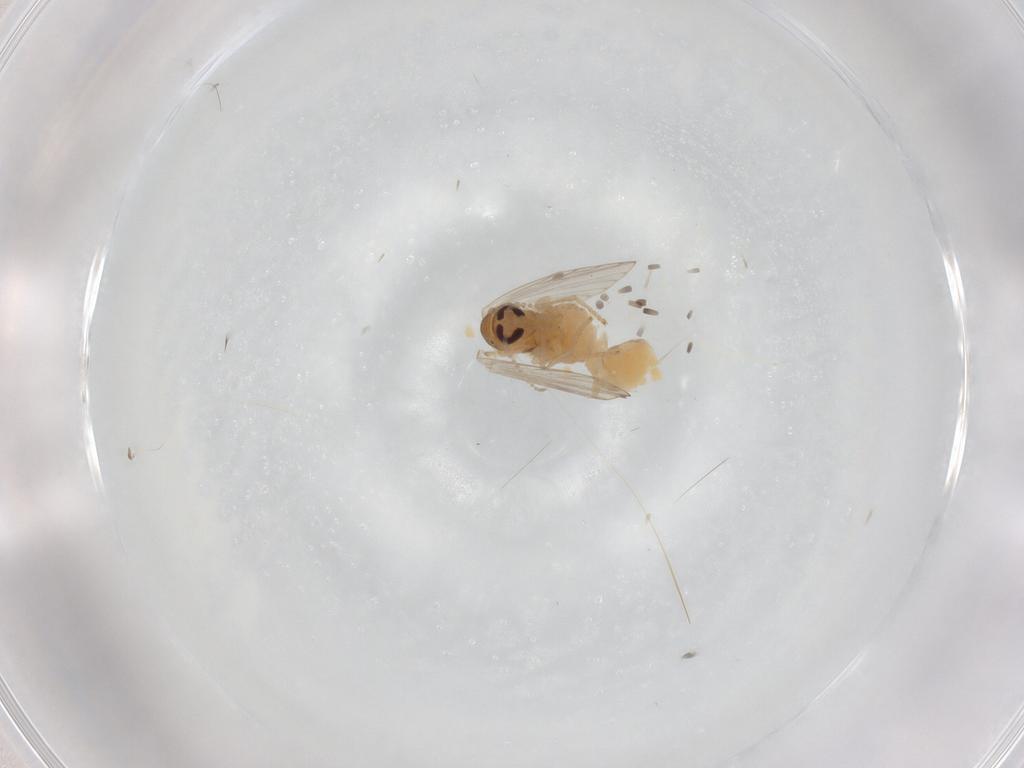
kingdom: Animalia
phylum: Arthropoda
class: Insecta
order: Diptera
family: Psychodidae
